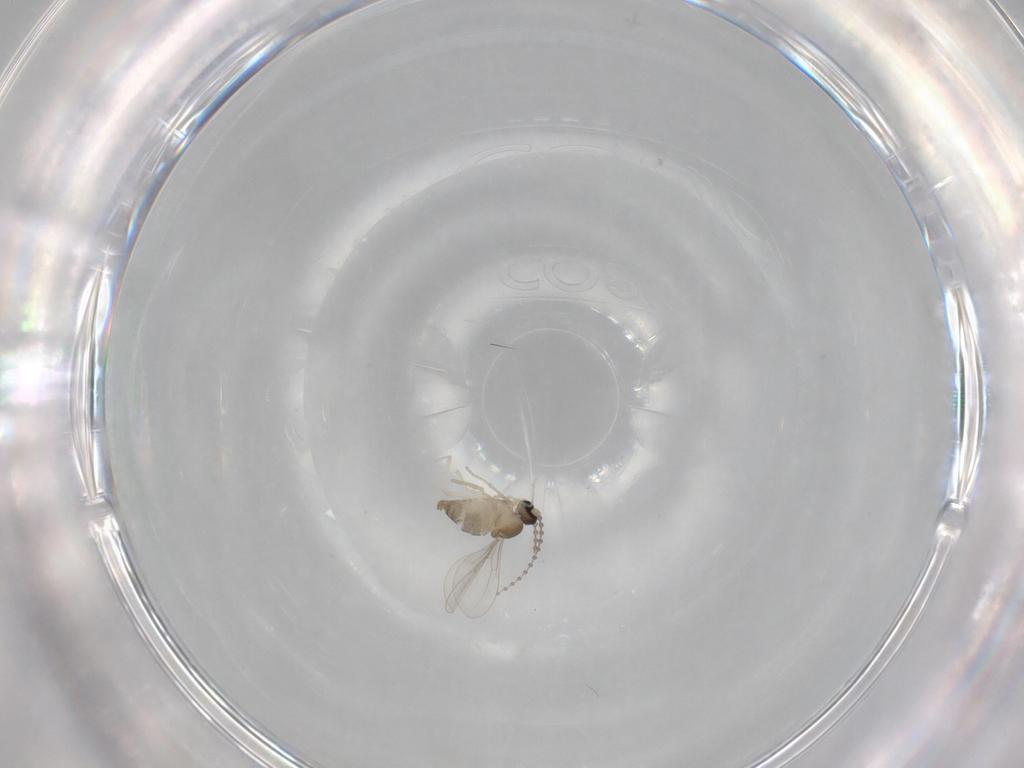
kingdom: Animalia
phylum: Arthropoda
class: Insecta
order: Diptera
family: Cecidomyiidae
